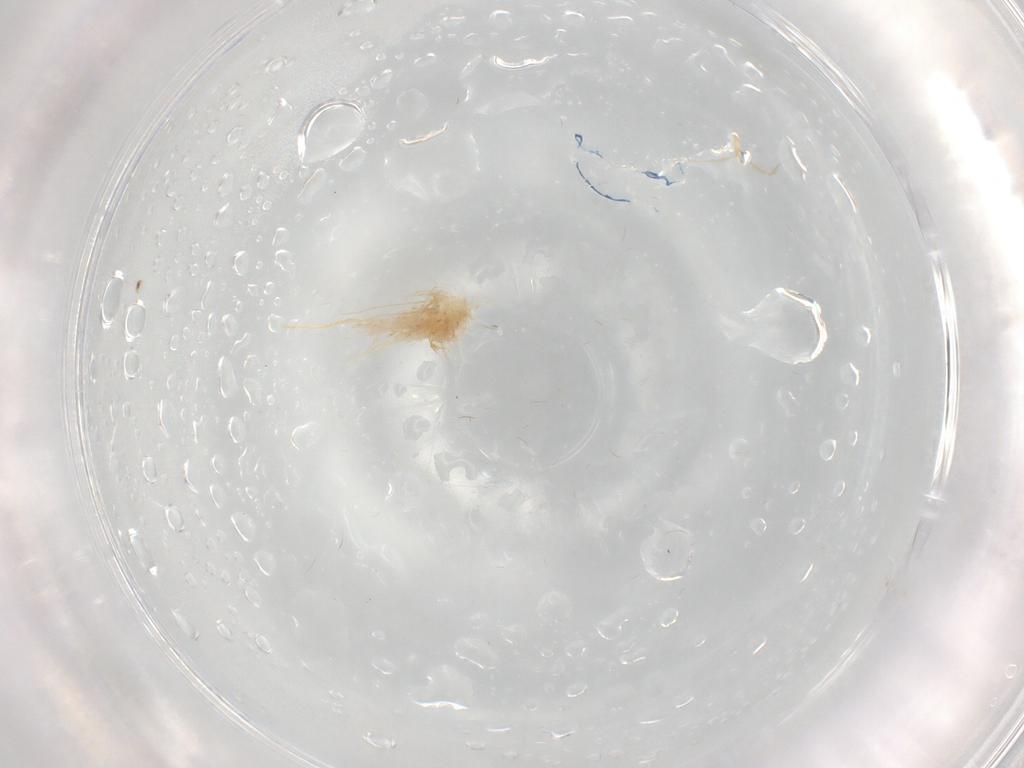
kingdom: Animalia
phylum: Arthropoda
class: Insecta
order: Diptera
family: Cecidomyiidae
